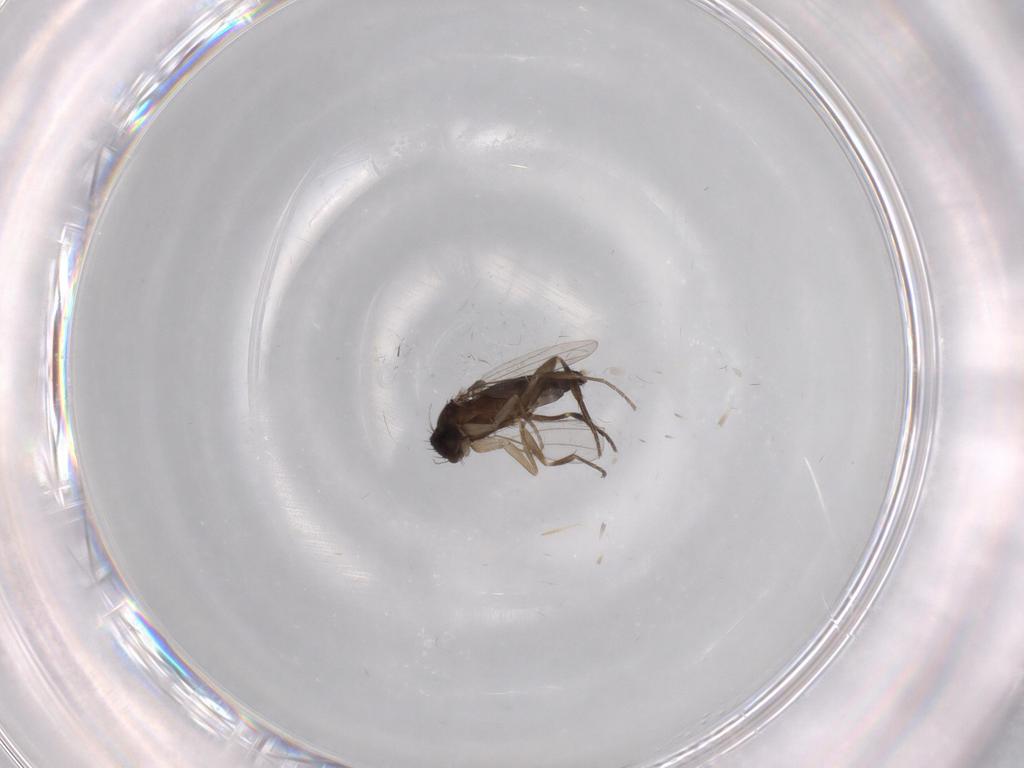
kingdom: Animalia
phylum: Arthropoda
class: Insecta
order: Diptera
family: Phoridae
